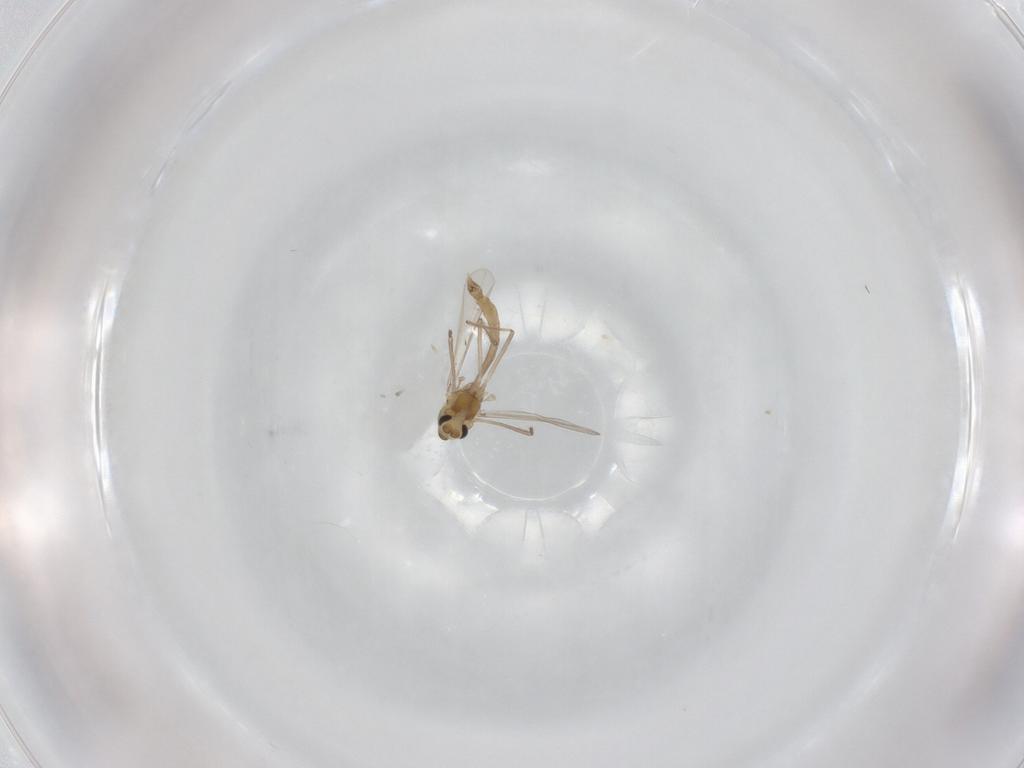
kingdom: Animalia
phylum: Arthropoda
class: Insecta
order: Diptera
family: Chironomidae
